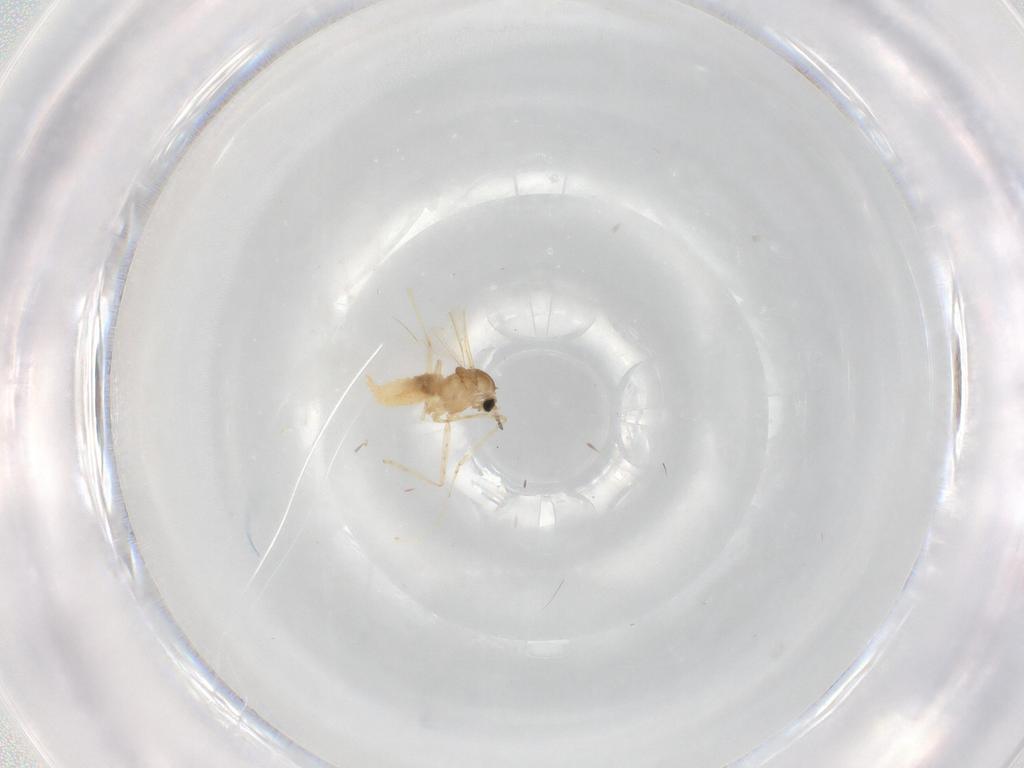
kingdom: Animalia
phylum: Arthropoda
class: Insecta
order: Diptera
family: Cecidomyiidae
